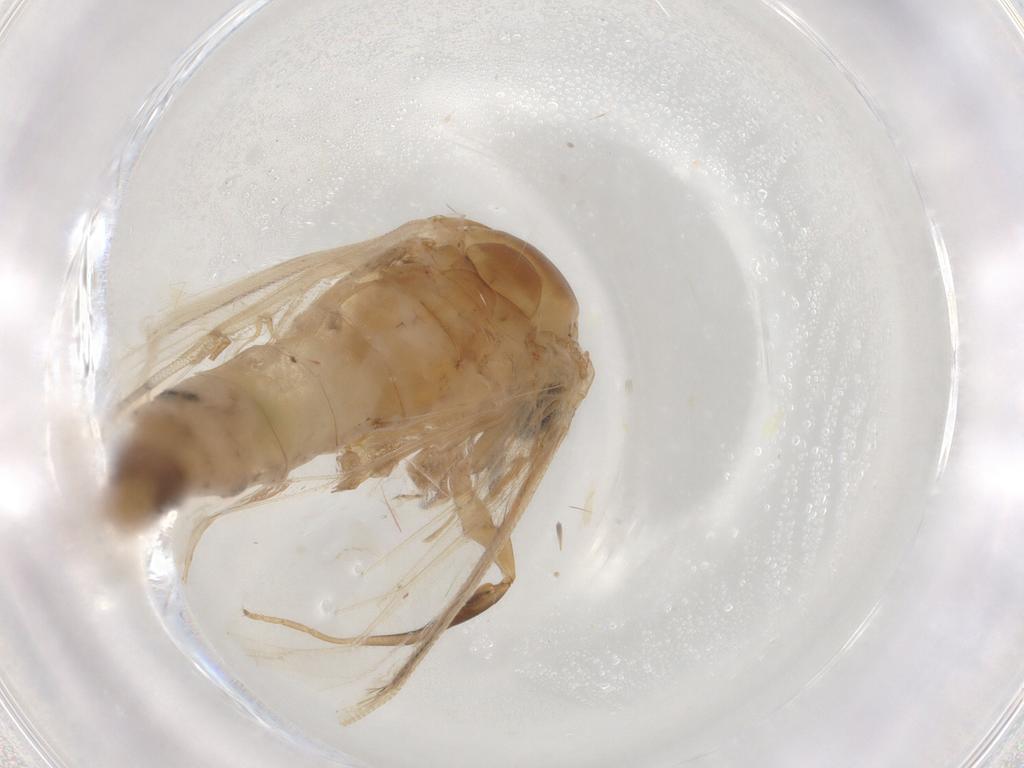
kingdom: Animalia
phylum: Arthropoda
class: Insecta
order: Lepidoptera
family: Erebidae
